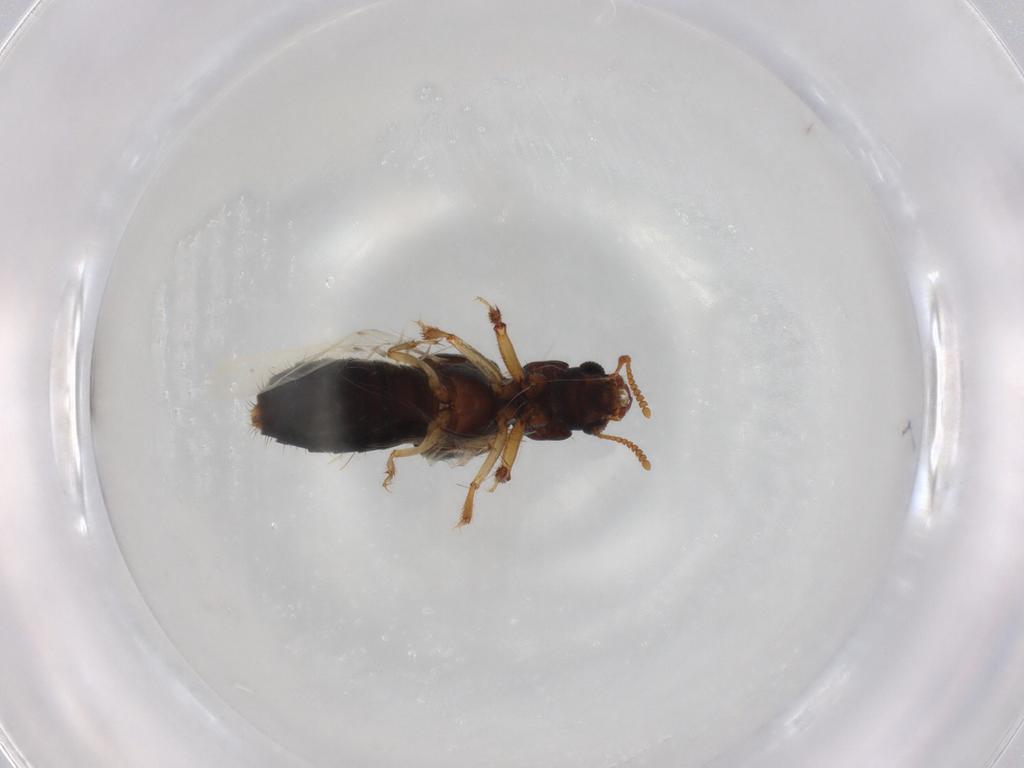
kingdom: Animalia
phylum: Arthropoda
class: Insecta
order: Coleoptera
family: Staphylinidae
